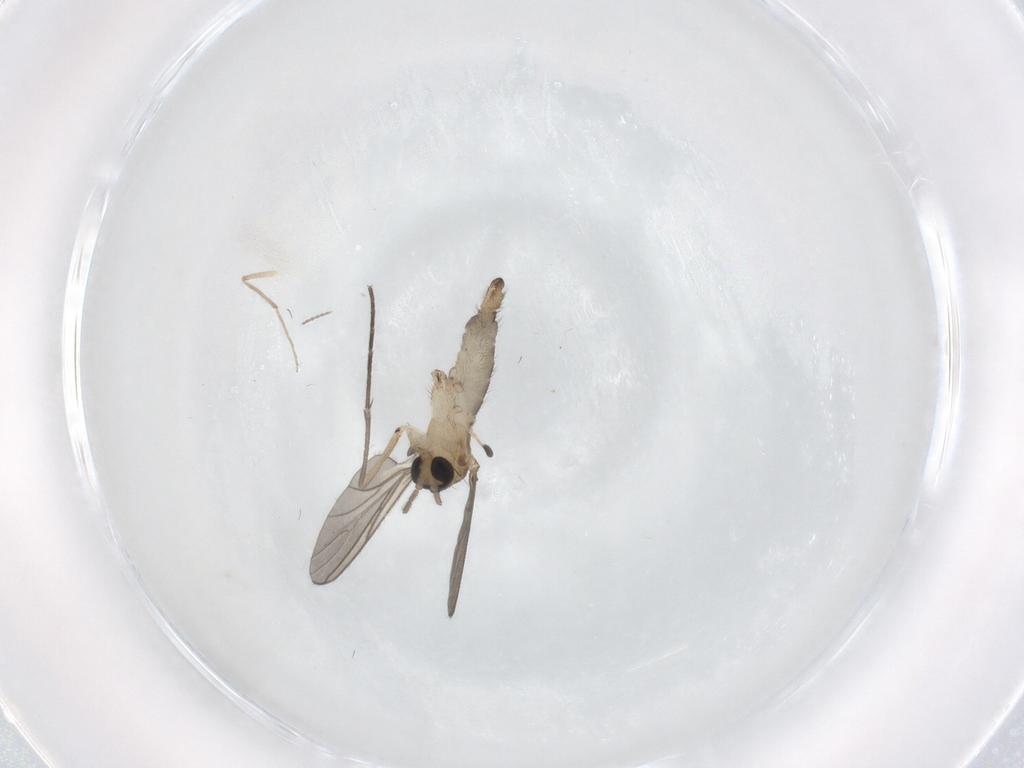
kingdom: Animalia
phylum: Arthropoda
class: Insecta
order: Diptera
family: Sciaridae
